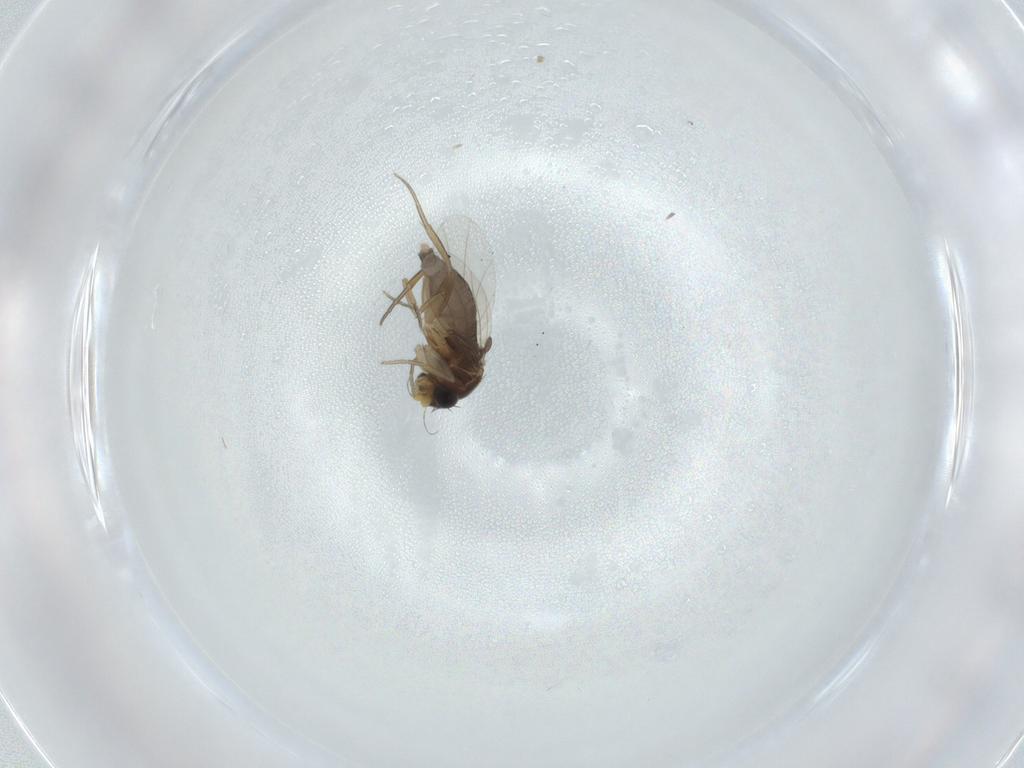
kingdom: Animalia
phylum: Arthropoda
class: Insecta
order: Diptera
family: Phoridae
